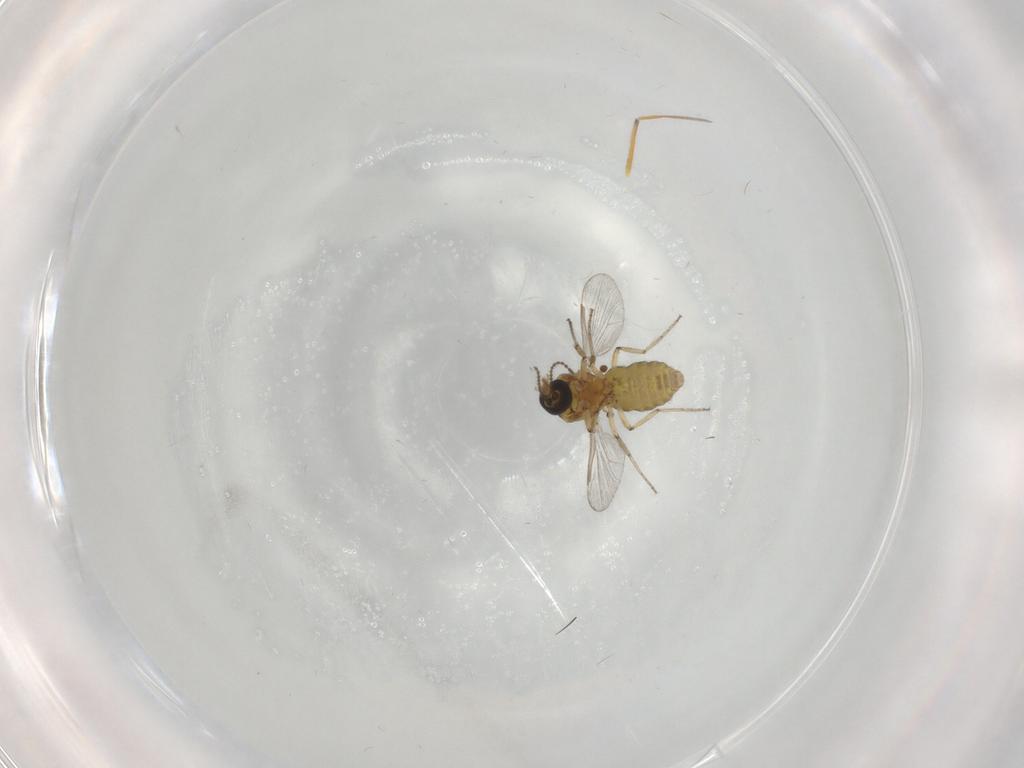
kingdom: Animalia
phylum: Arthropoda
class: Insecta
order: Diptera
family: Ceratopogonidae
